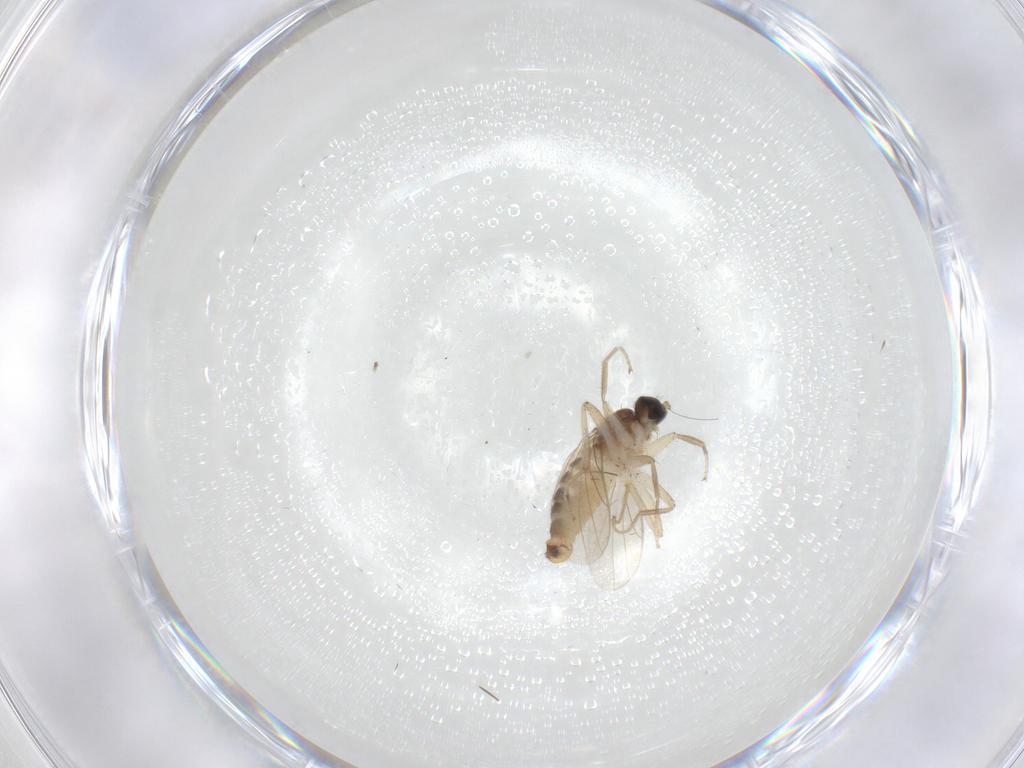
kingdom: Animalia
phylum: Arthropoda
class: Insecta
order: Diptera
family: Hybotidae
